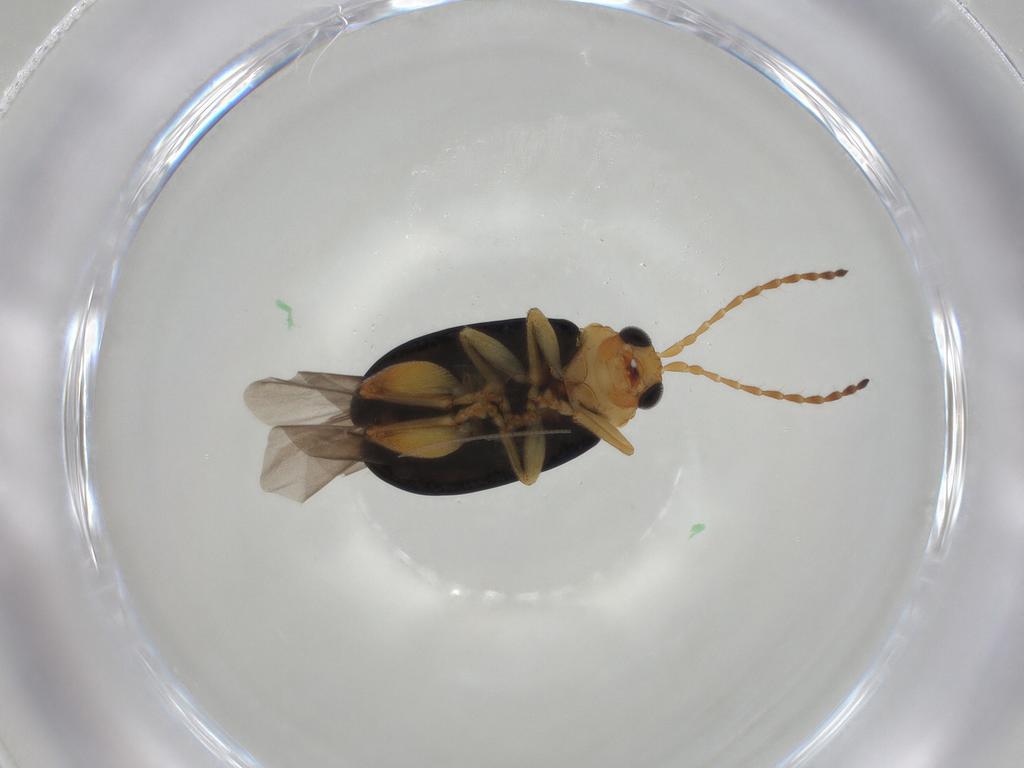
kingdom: Animalia
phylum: Arthropoda
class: Insecta
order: Coleoptera
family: Chrysomelidae
